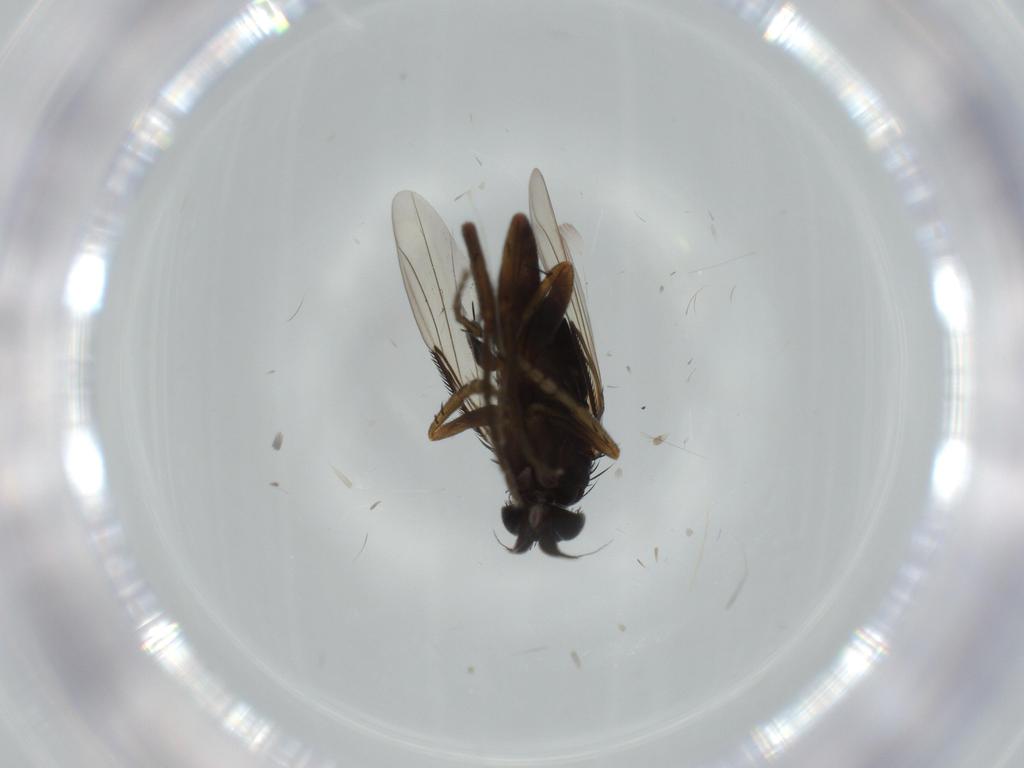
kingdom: Animalia
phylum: Arthropoda
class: Insecta
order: Diptera
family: Phoridae
